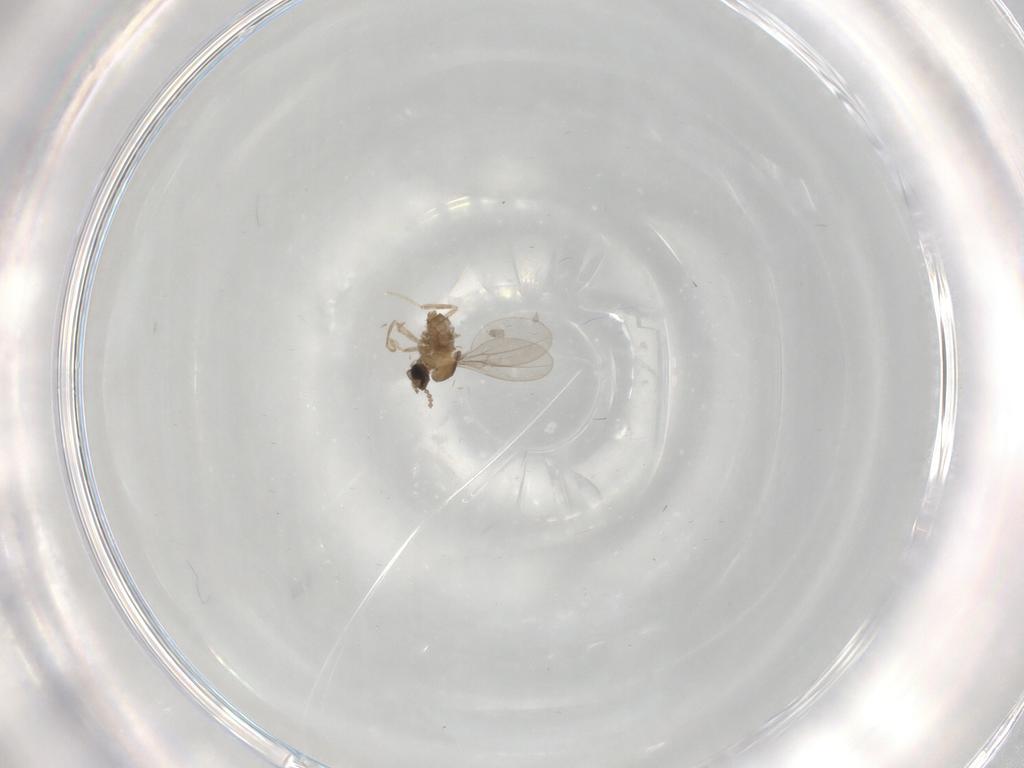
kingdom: Animalia
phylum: Arthropoda
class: Insecta
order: Diptera
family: Cecidomyiidae
